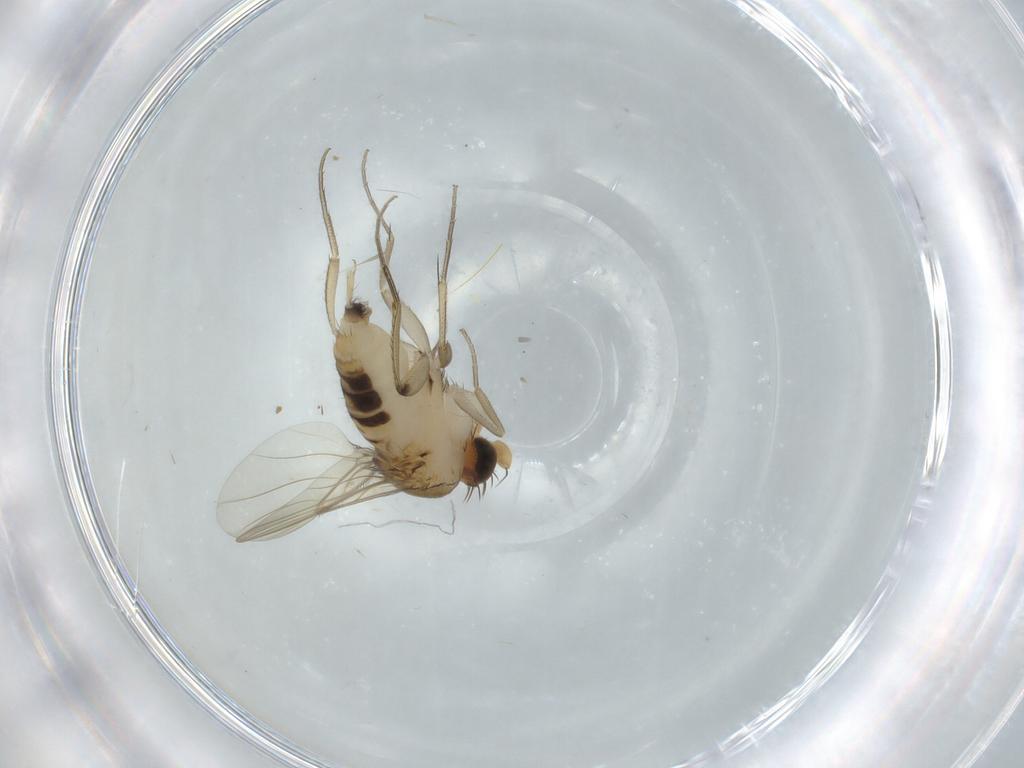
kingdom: Animalia
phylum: Arthropoda
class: Insecta
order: Diptera
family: Phoridae
